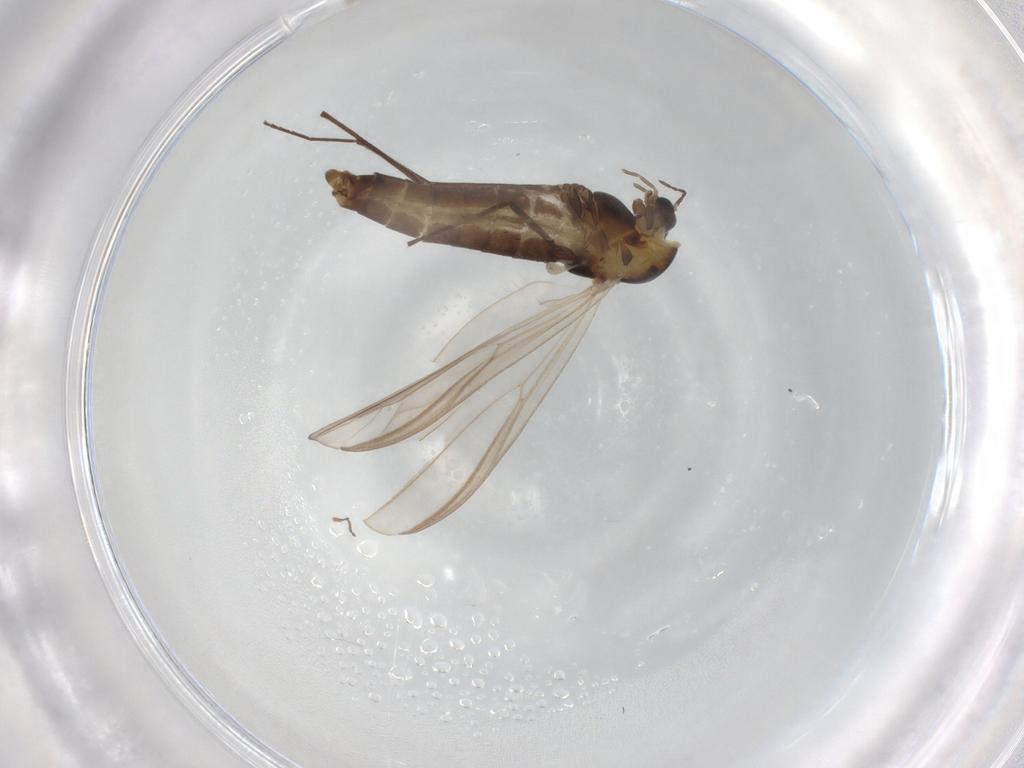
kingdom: Animalia
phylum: Arthropoda
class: Insecta
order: Diptera
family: Chironomidae
